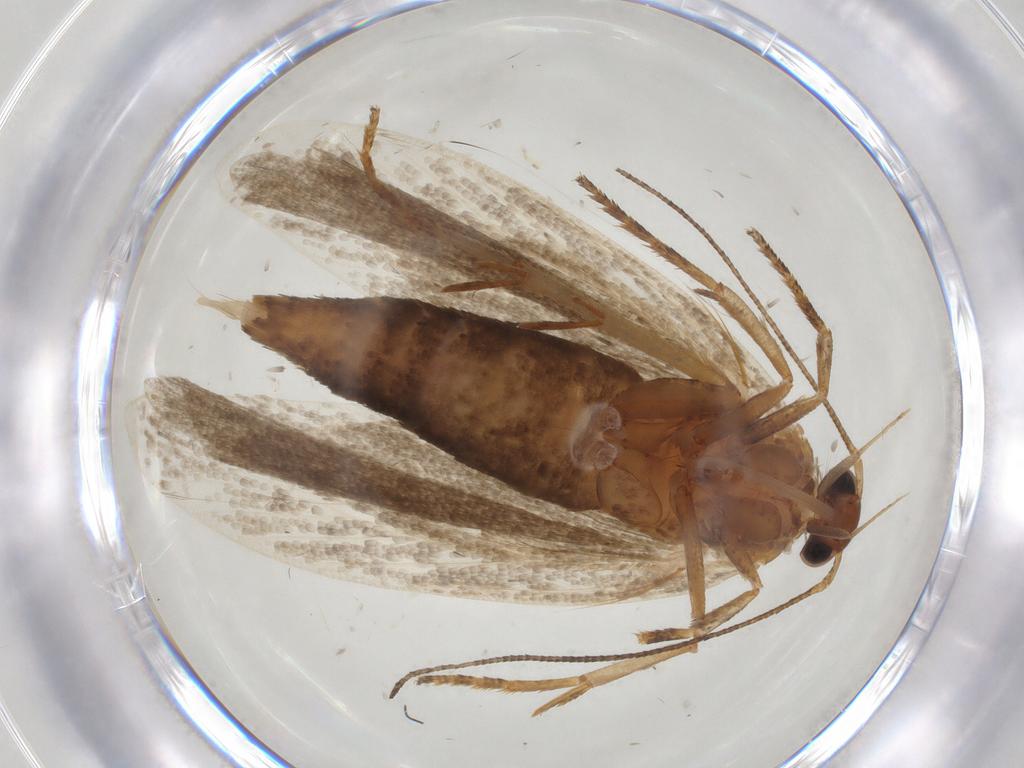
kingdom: Animalia
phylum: Arthropoda
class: Insecta
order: Lepidoptera
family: Gelechiidae
